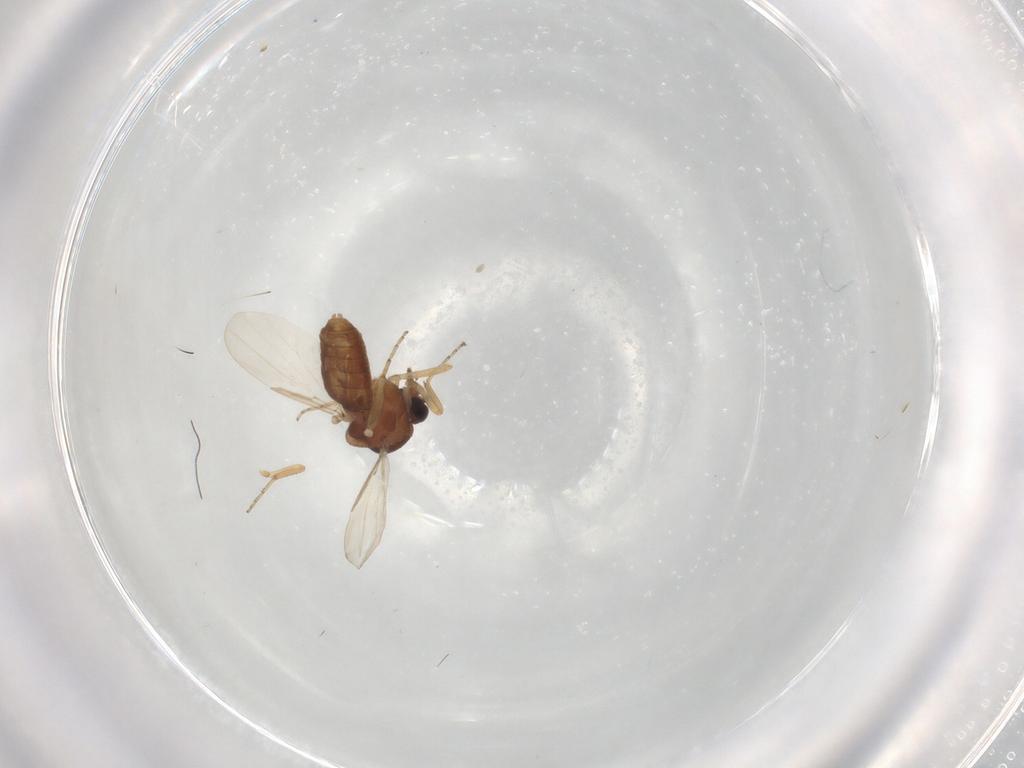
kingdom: Animalia
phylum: Arthropoda
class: Insecta
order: Diptera
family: Ceratopogonidae
